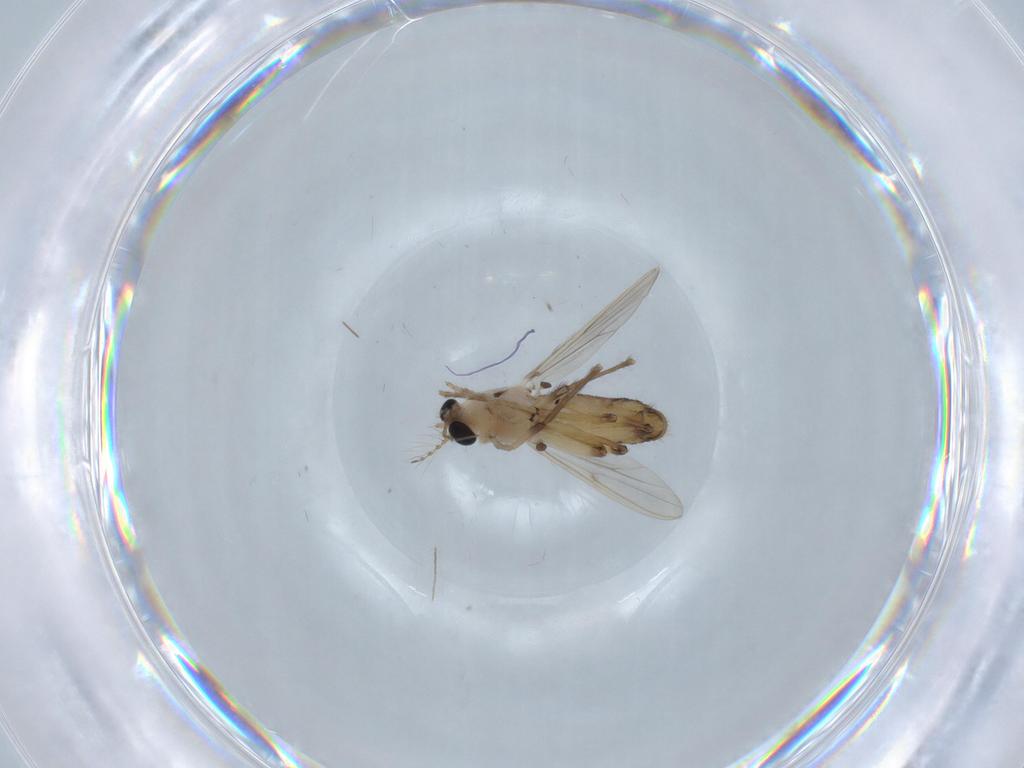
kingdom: Animalia
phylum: Arthropoda
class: Insecta
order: Diptera
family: Chironomidae
